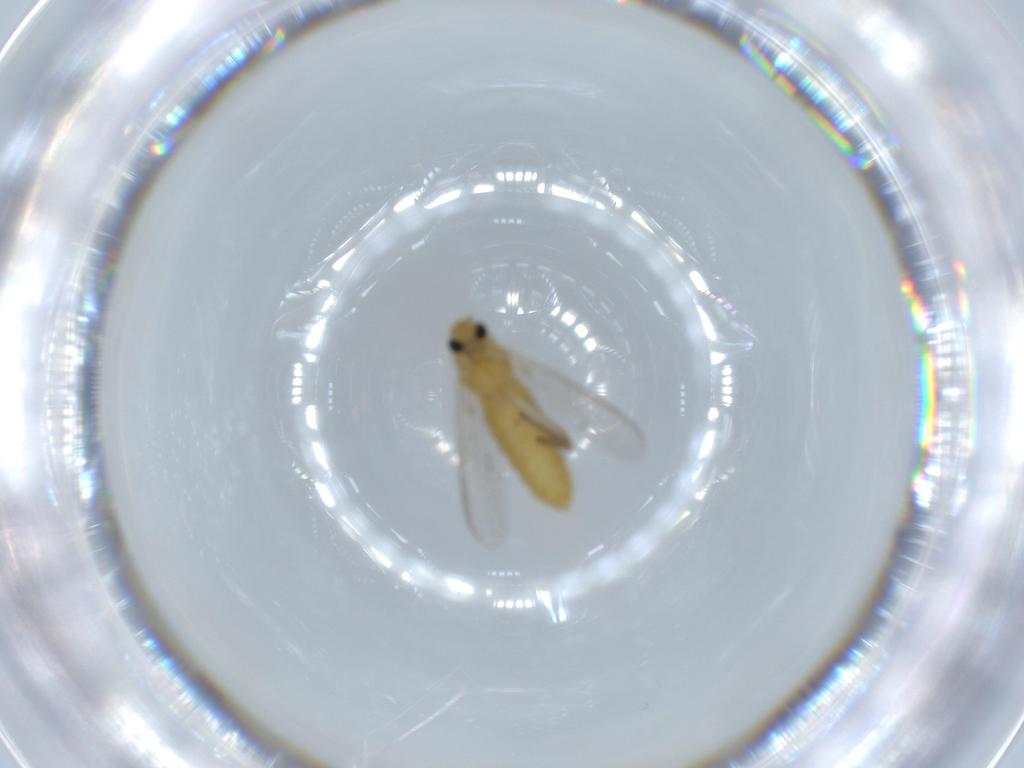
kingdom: Animalia
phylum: Arthropoda
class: Insecta
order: Diptera
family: Chironomidae
